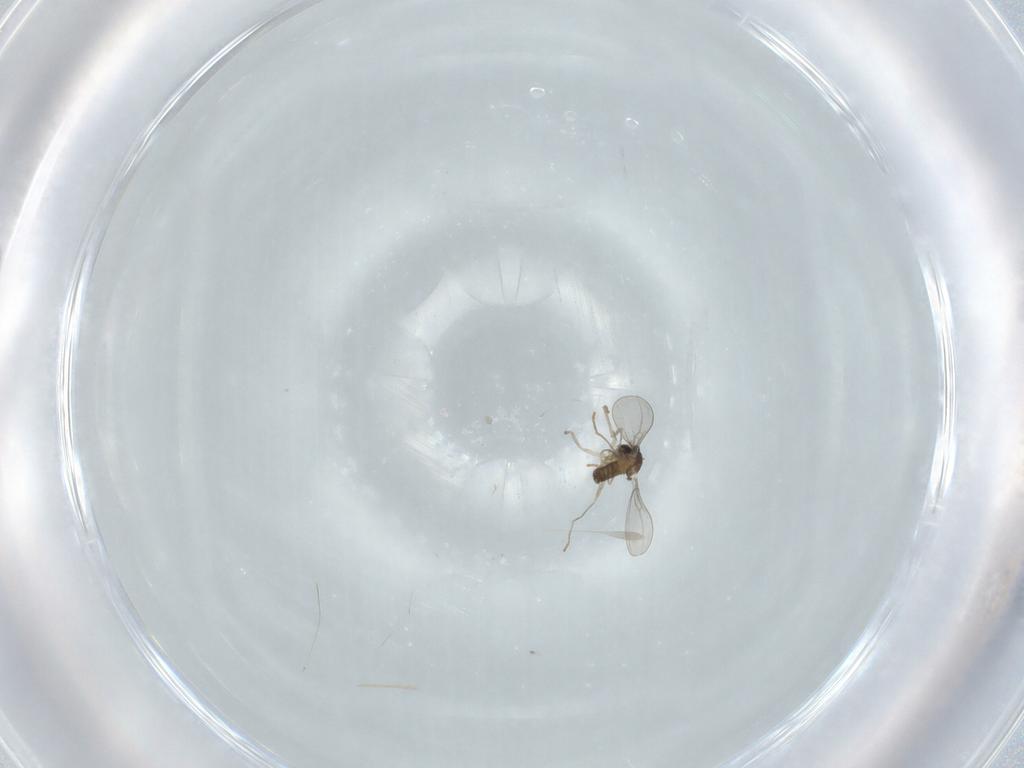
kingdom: Animalia
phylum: Arthropoda
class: Insecta
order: Diptera
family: Cecidomyiidae
